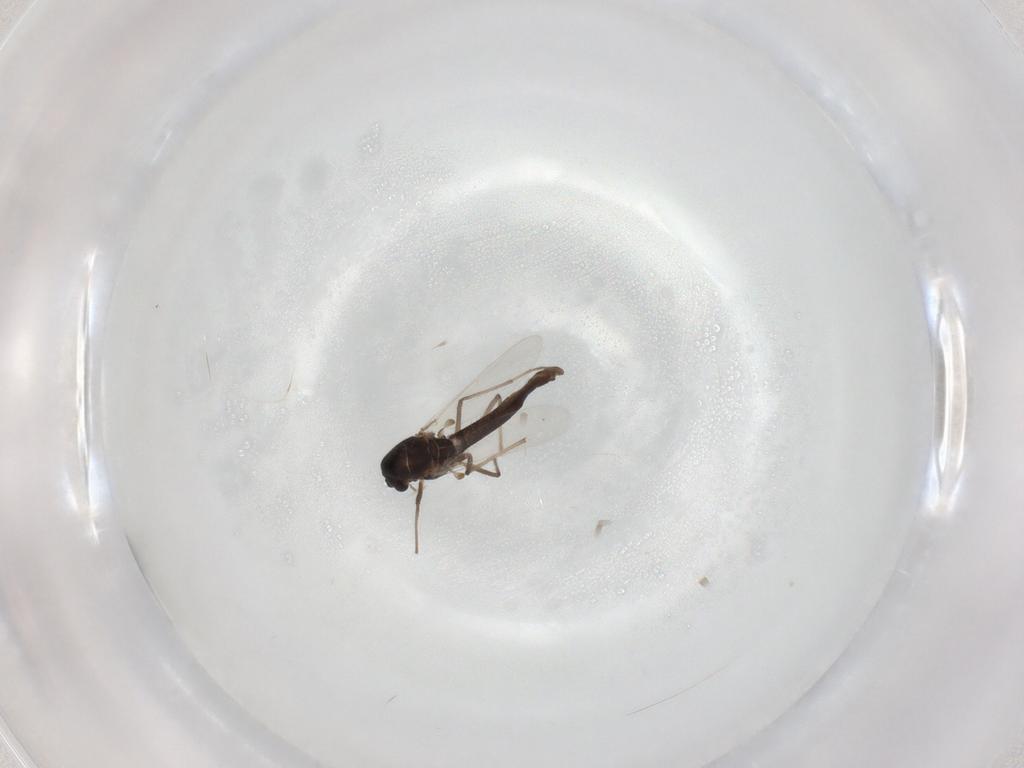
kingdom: Animalia
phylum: Arthropoda
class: Insecta
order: Diptera
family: Chironomidae
